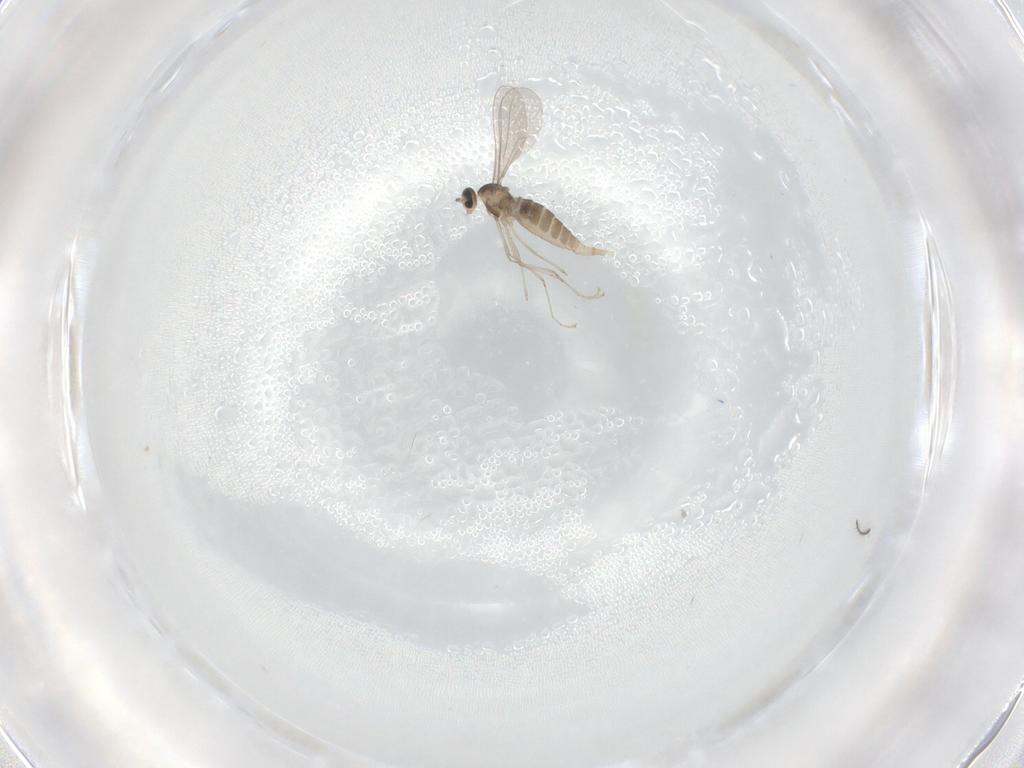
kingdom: Animalia
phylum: Arthropoda
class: Insecta
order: Diptera
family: Ceratopogonidae
